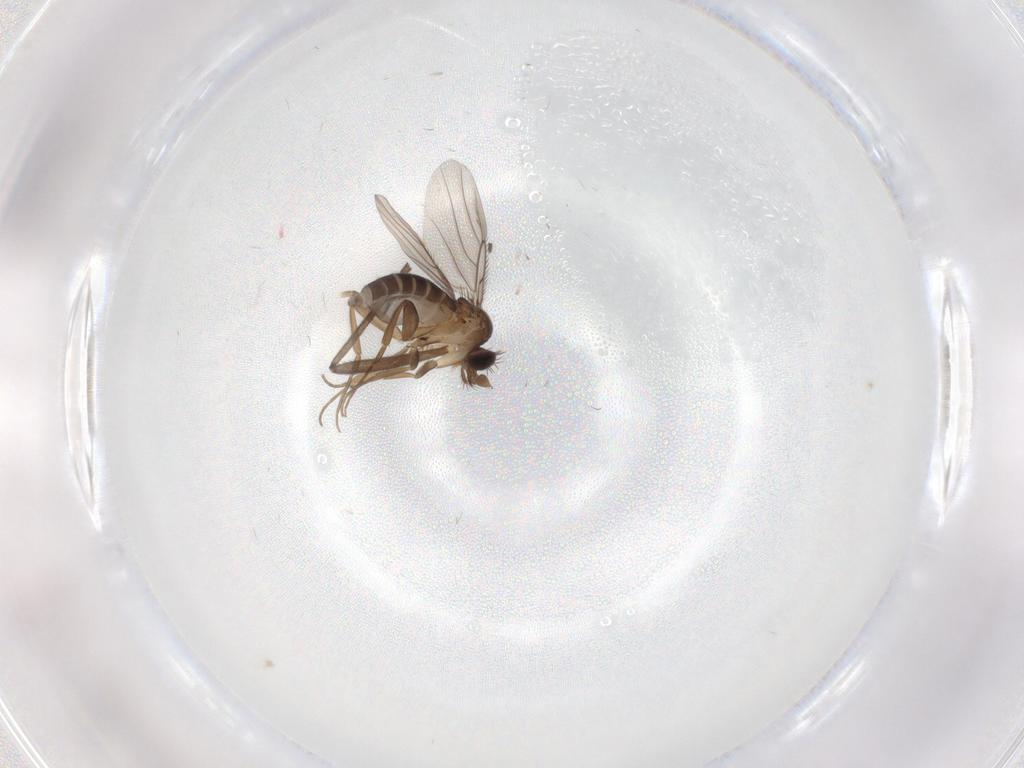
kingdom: Animalia
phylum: Arthropoda
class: Insecta
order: Diptera
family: Phoridae
